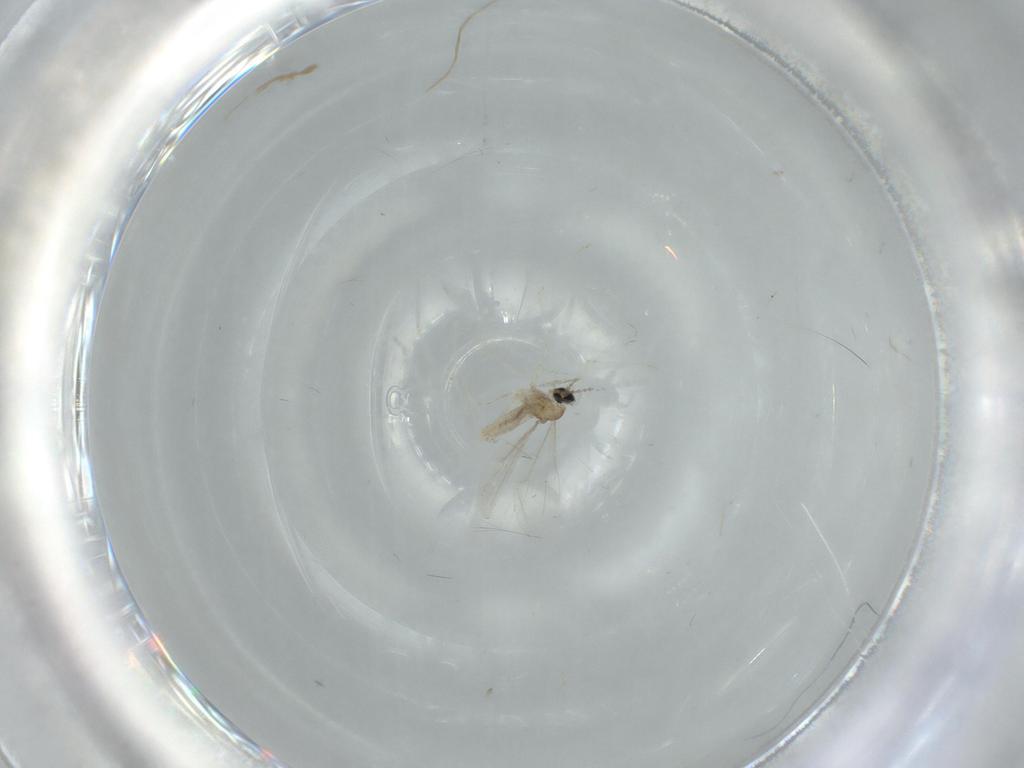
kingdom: Animalia
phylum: Arthropoda
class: Insecta
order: Diptera
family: Cecidomyiidae
